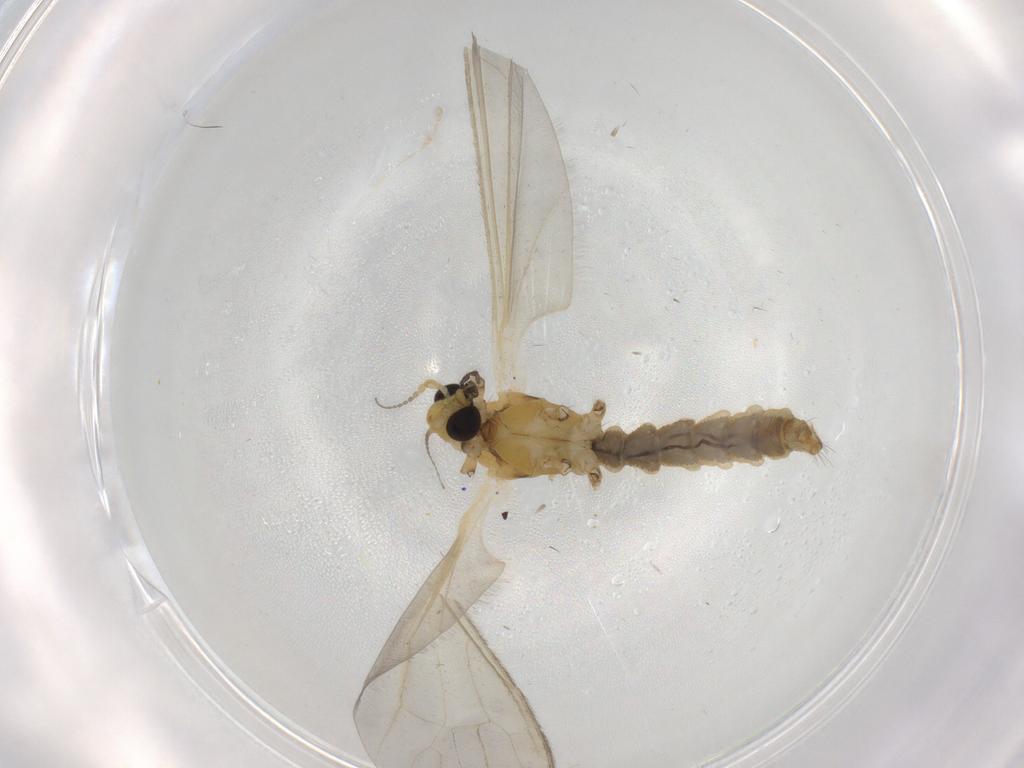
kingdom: Animalia
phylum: Arthropoda
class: Insecta
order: Diptera
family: Limoniidae
